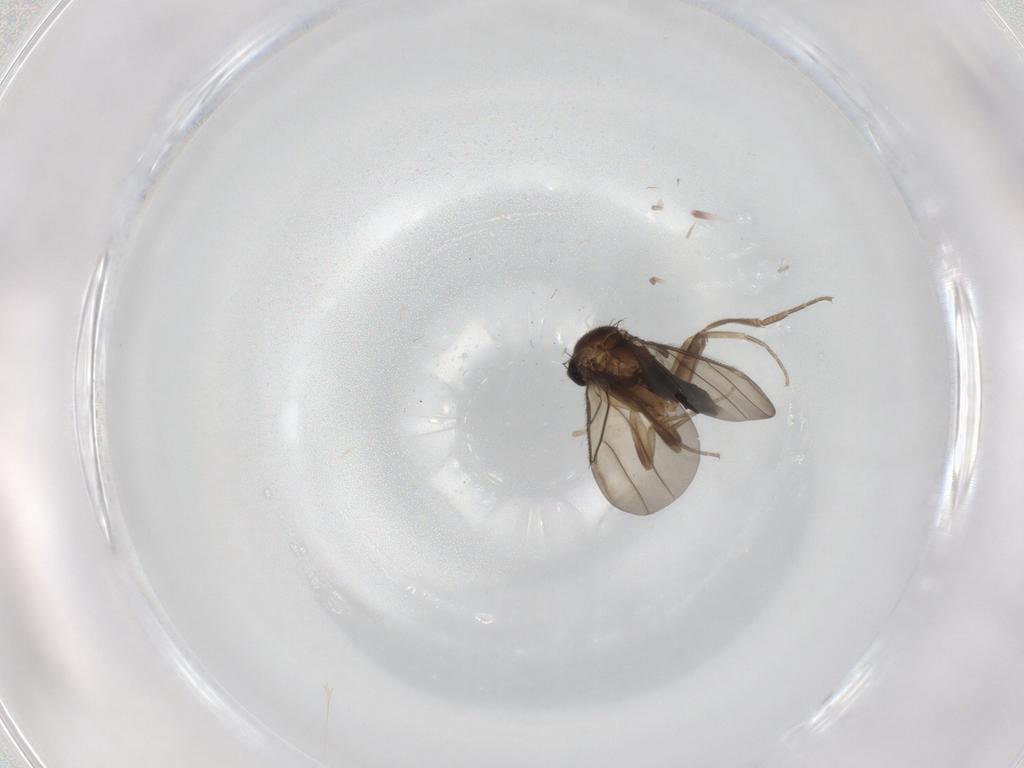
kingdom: Animalia
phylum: Arthropoda
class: Insecta
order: Diptera
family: Phoridae
